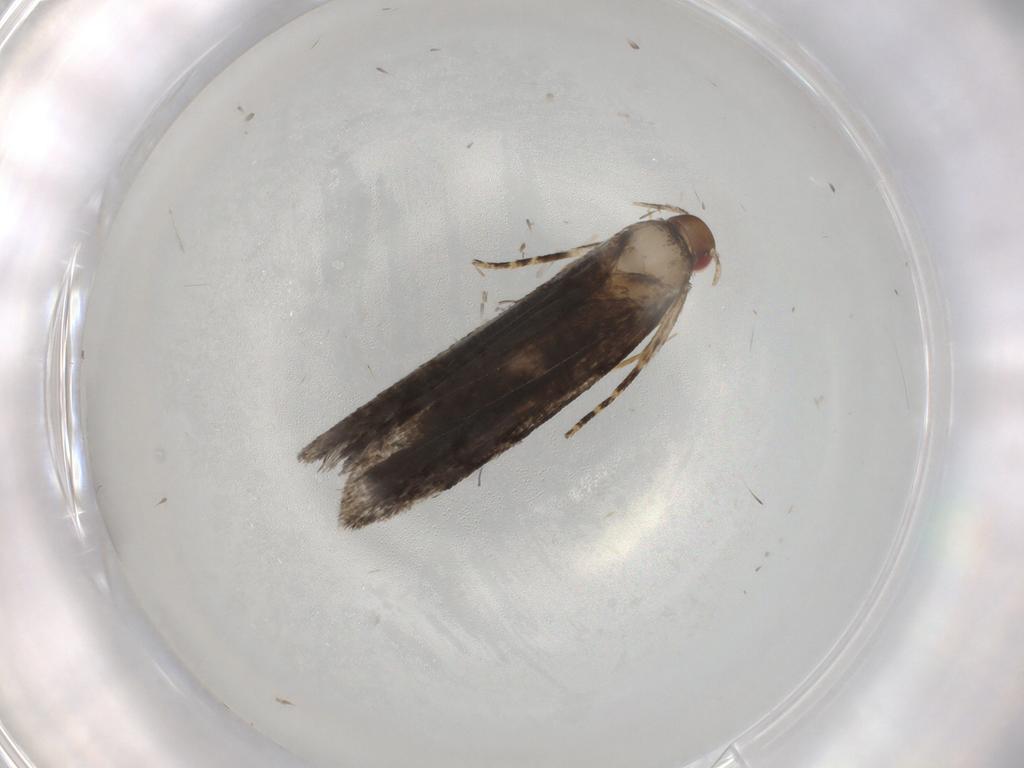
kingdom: Animalia
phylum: Arthropoda
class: Insecta
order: Lepidoptera
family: Gelechiidae
